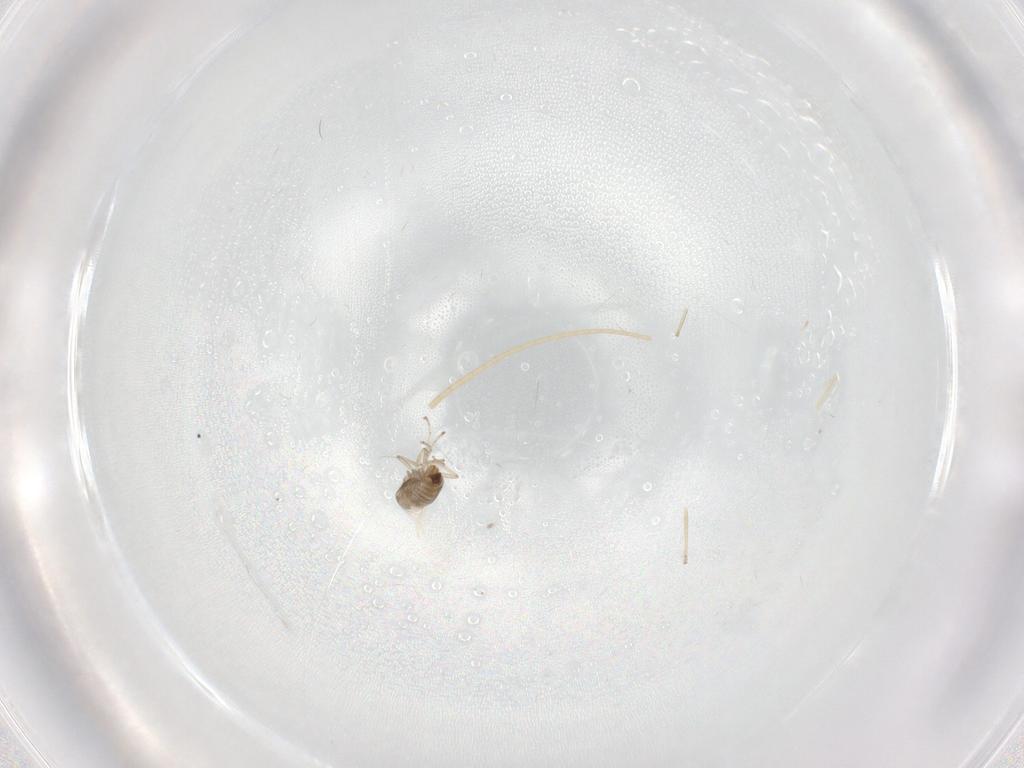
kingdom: Animalia
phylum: Arthropoda
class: Insecta
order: Diptera
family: Cecidomyiidae
